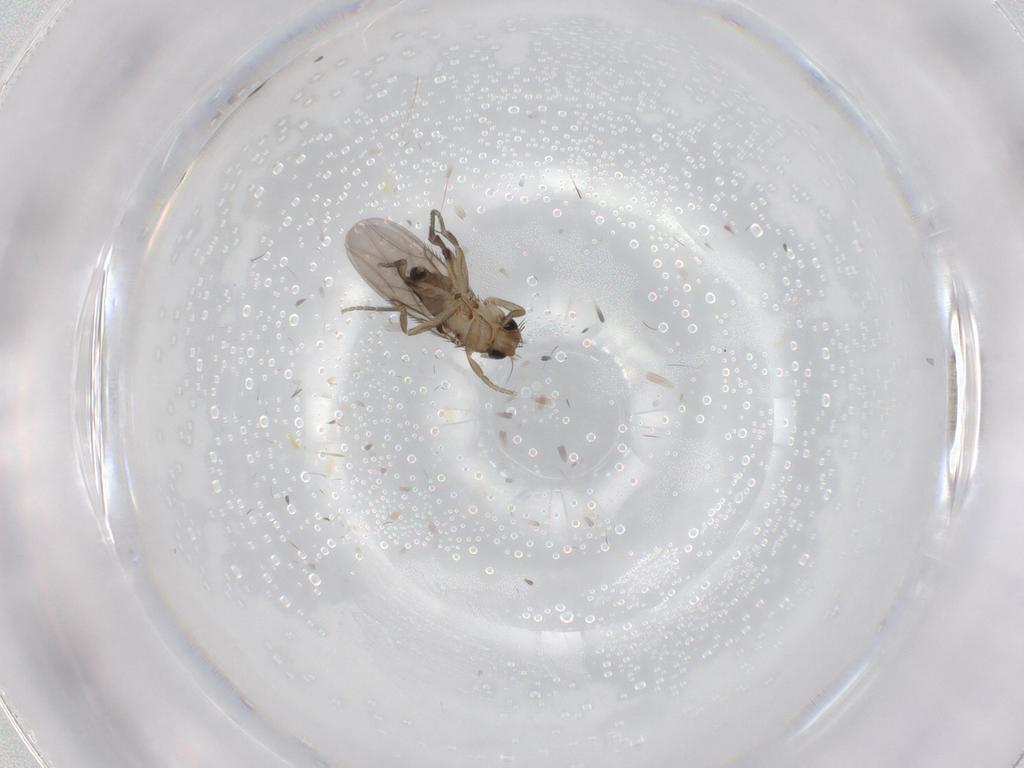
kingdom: Animalia
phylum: Arthropoda
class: Insecta
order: Diptera
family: Phoridae
